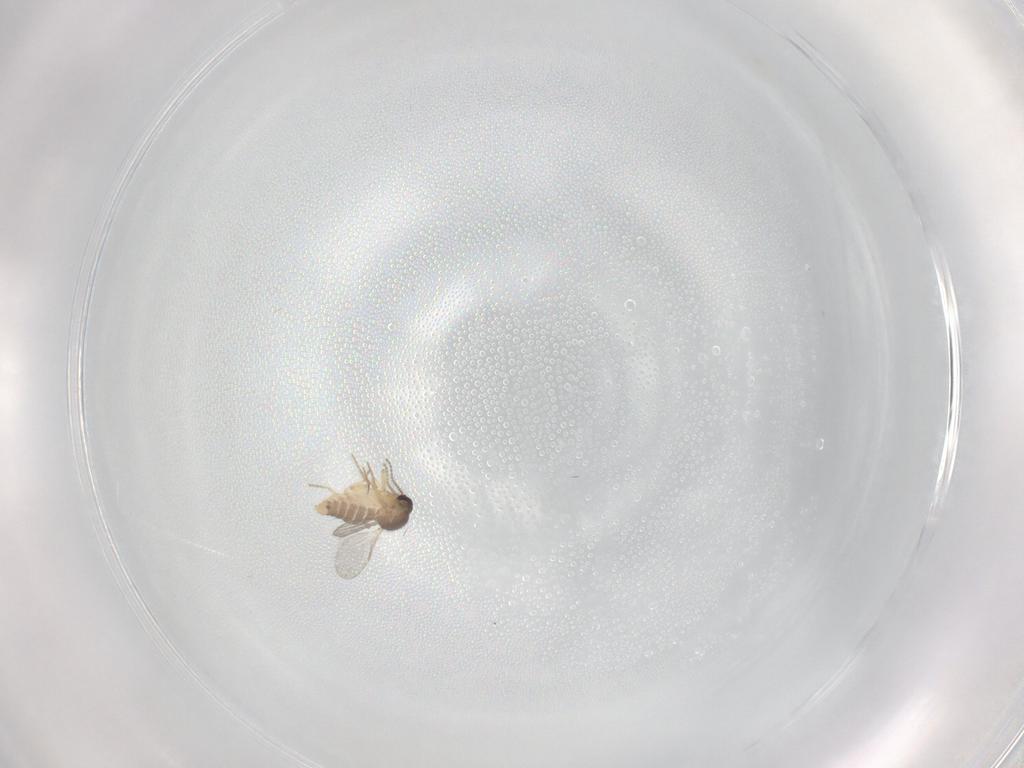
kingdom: Animalia
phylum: Arthropoda
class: Insecta
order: Diptera
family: Ceratopogonidae
